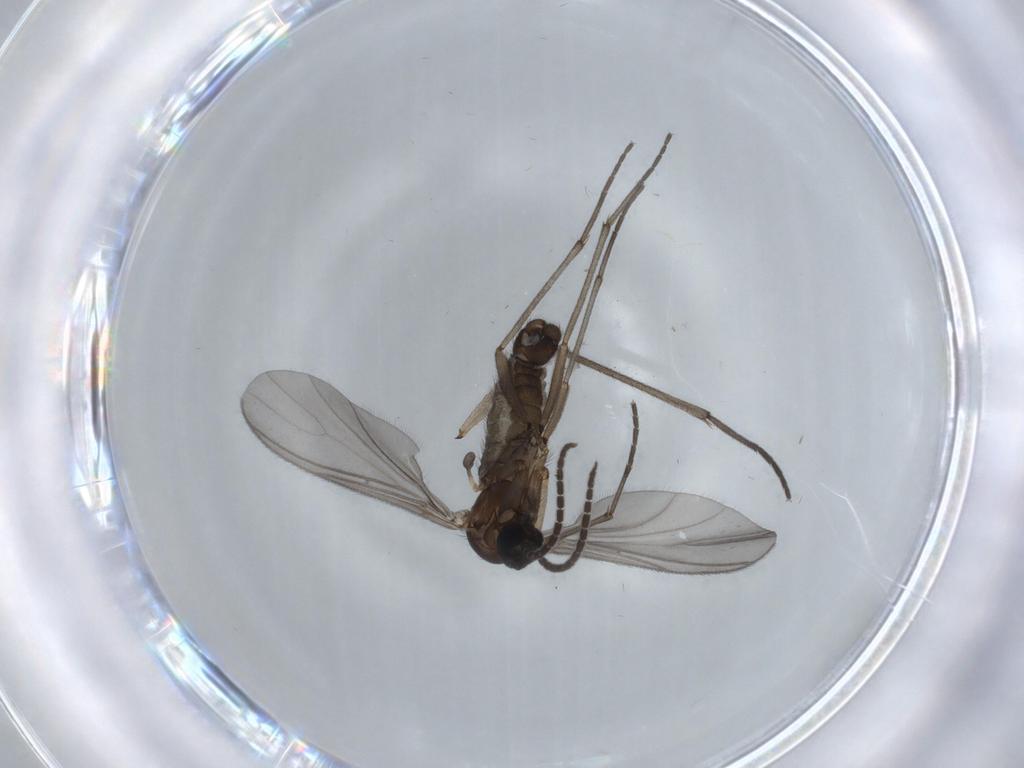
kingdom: Animalia
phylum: Arthropoda
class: Insecta
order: Diptera
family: Sciaridae
